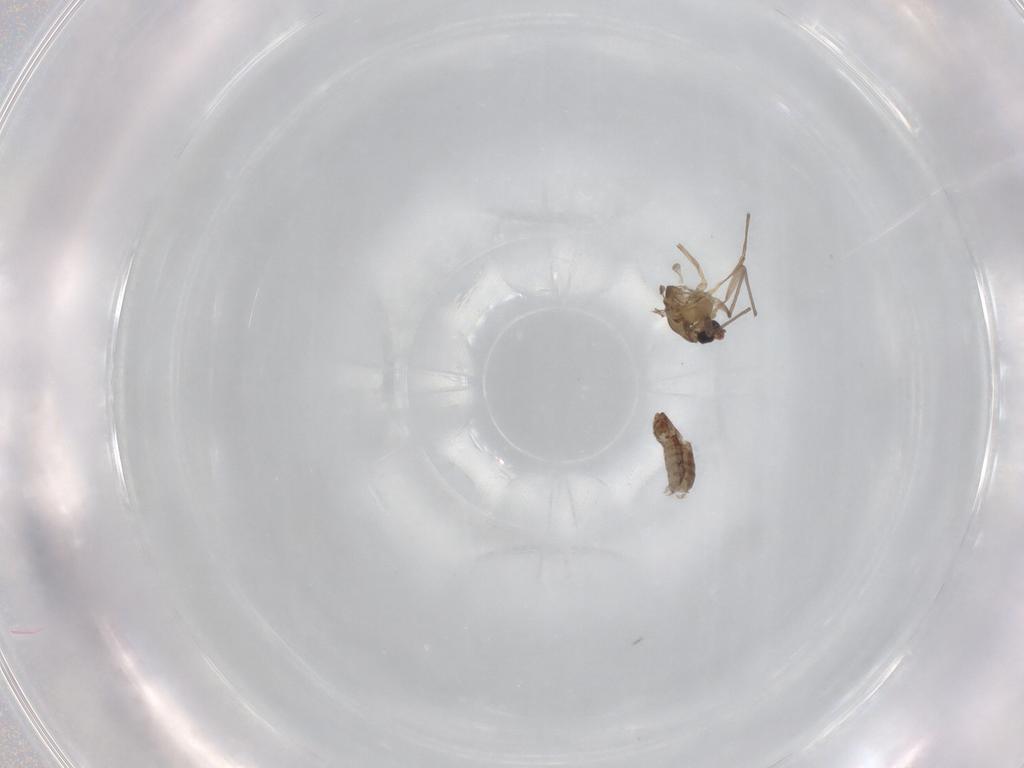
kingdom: Animalia
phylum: Arthropoda
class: Insecta
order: Diptera
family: Chironomidae
